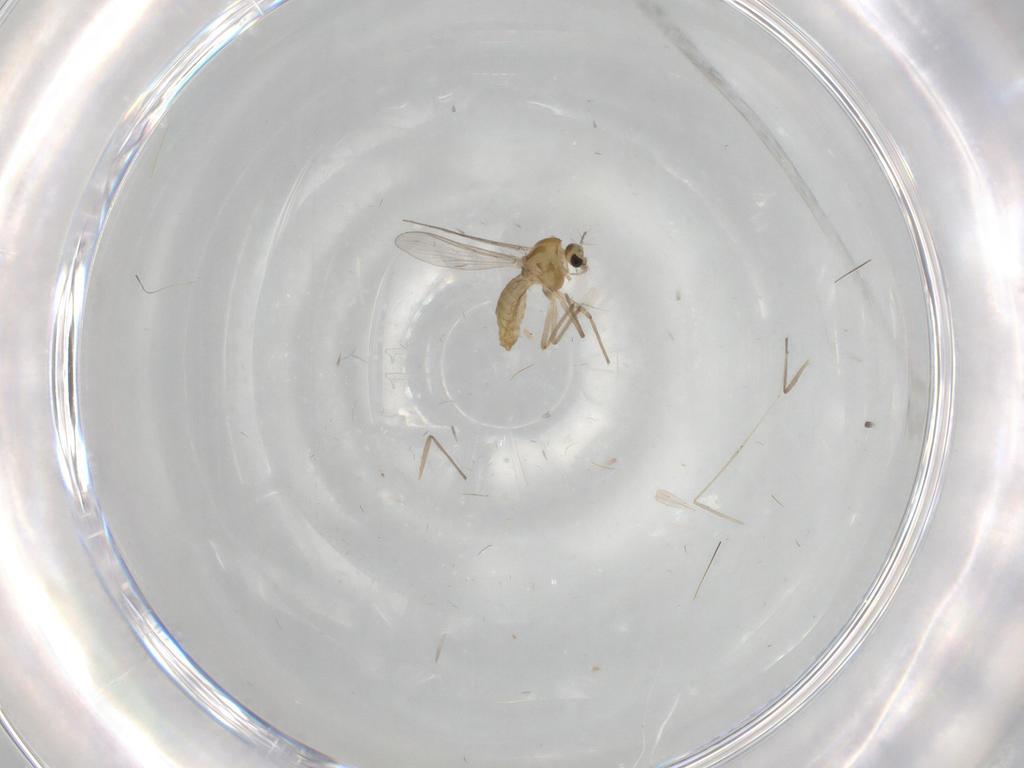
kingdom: Animalia
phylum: Arthropoda
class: Insecta
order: Diptera
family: Chironomidae
